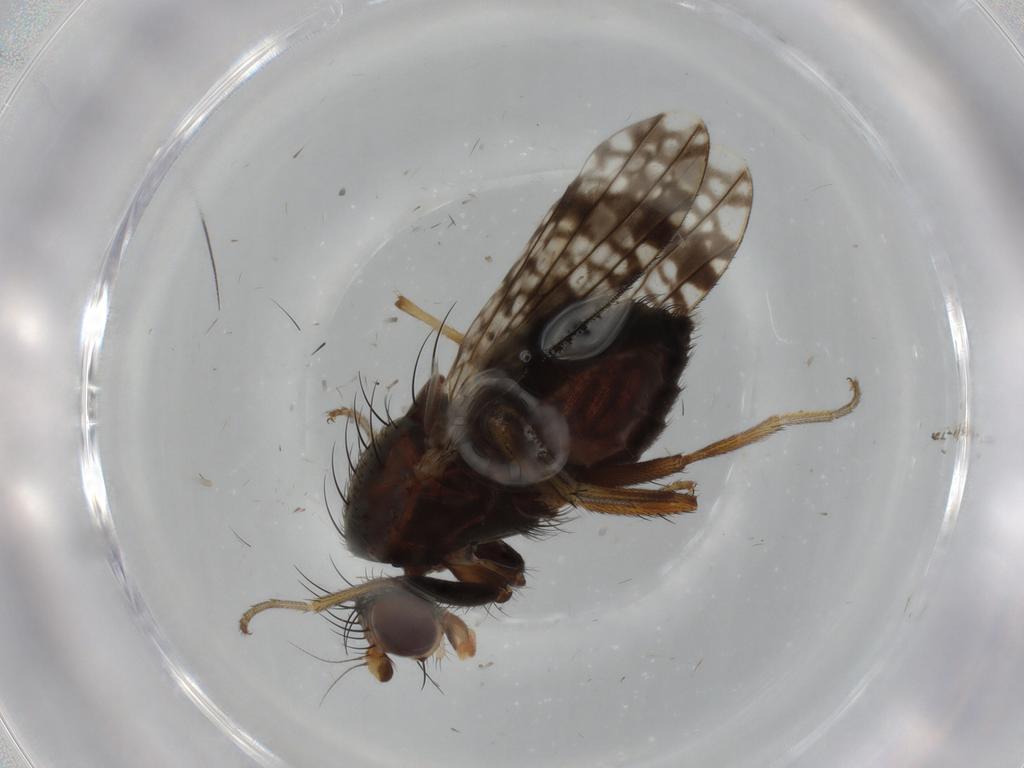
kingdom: Animalia
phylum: Arthropoda
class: Insecta
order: Diptera
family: Tephritidae
